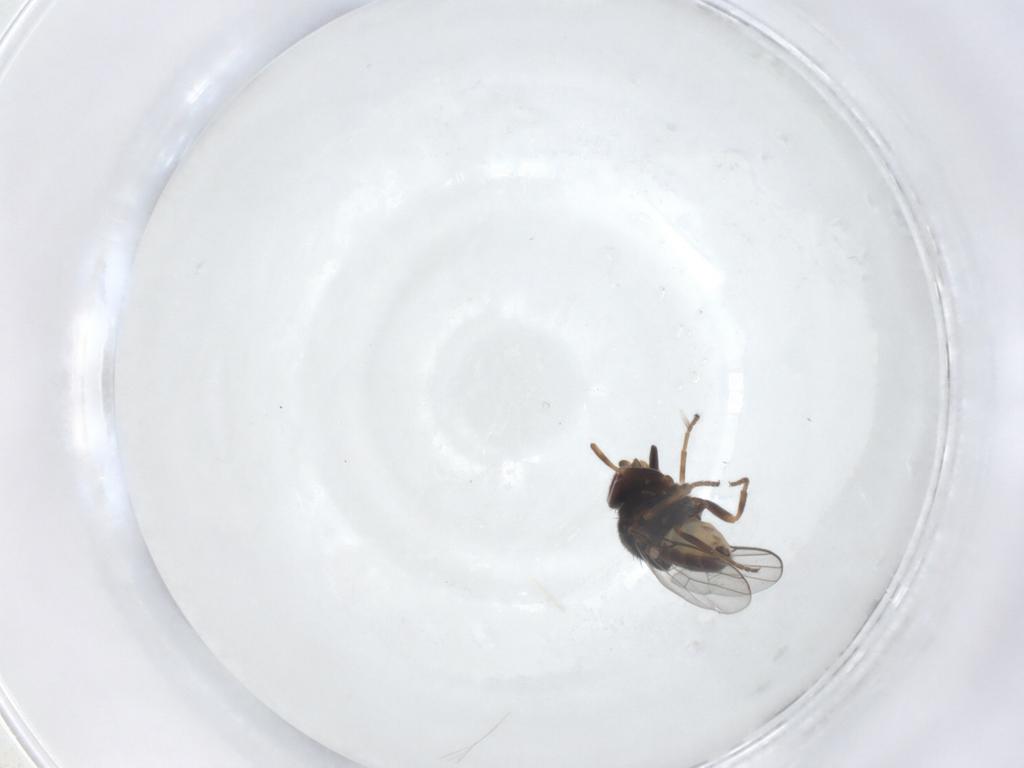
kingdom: Animalia
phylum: Arthropoda
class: Insecta
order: Diptera
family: Chloropidae
